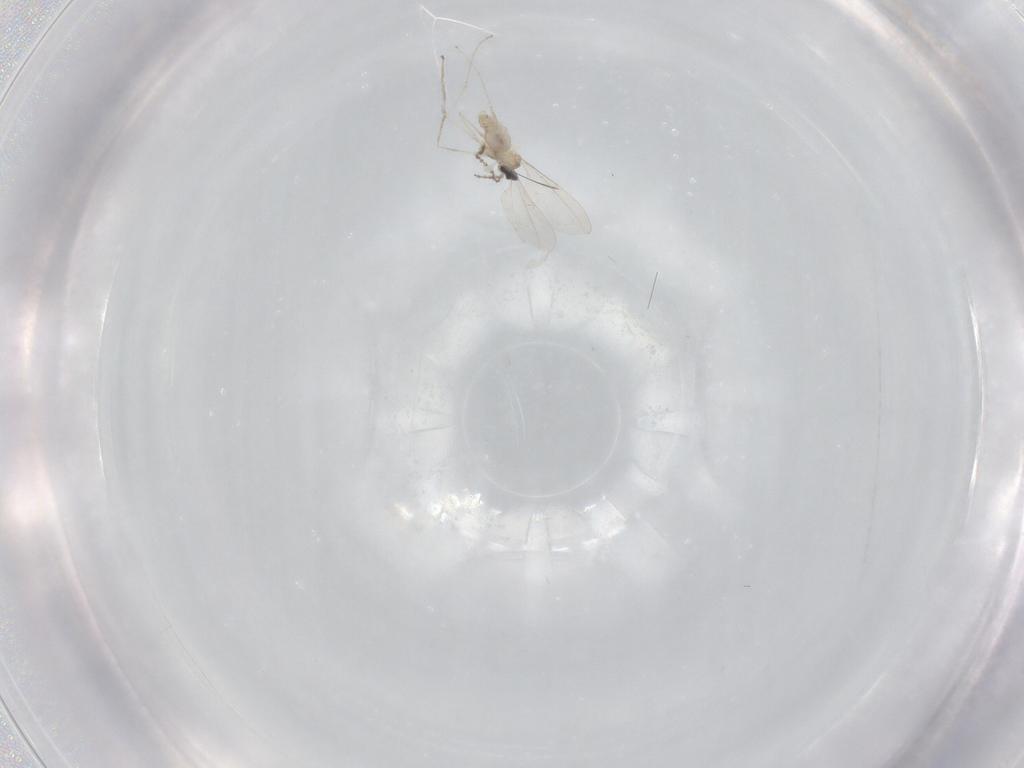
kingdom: Animalia
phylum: Arthropoda
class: Insecta
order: Diptera
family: Cecidomyiidae
